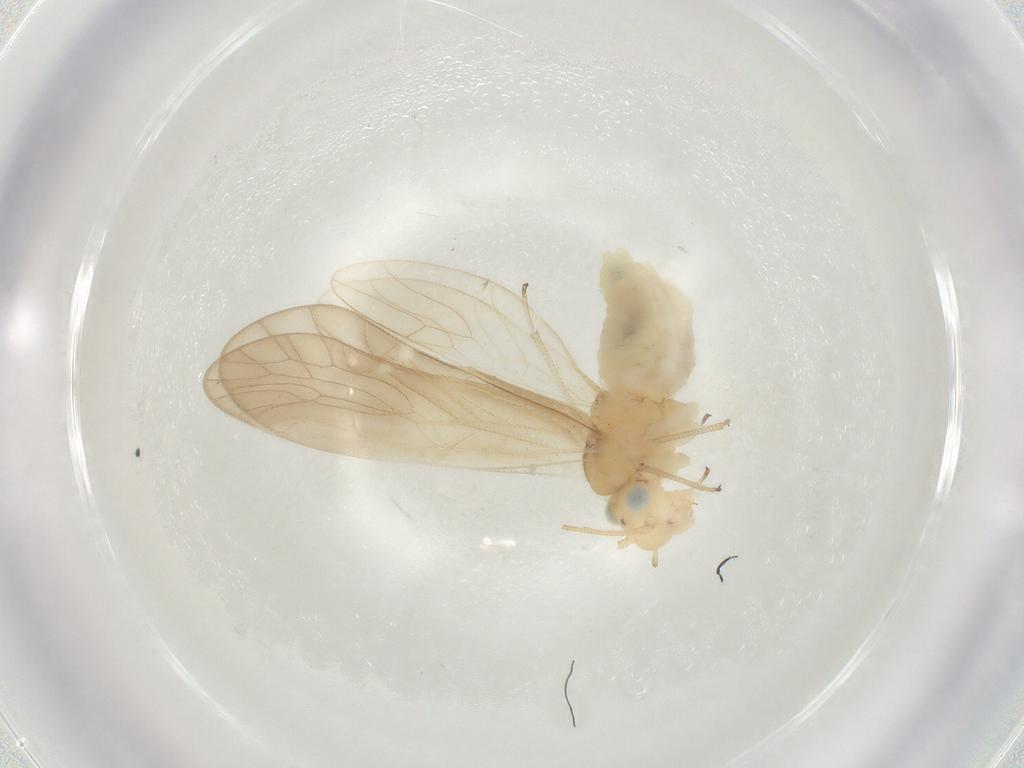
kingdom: Animalia
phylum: Arthropoda
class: Insecta
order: Psocodea
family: Caeciliusidae
